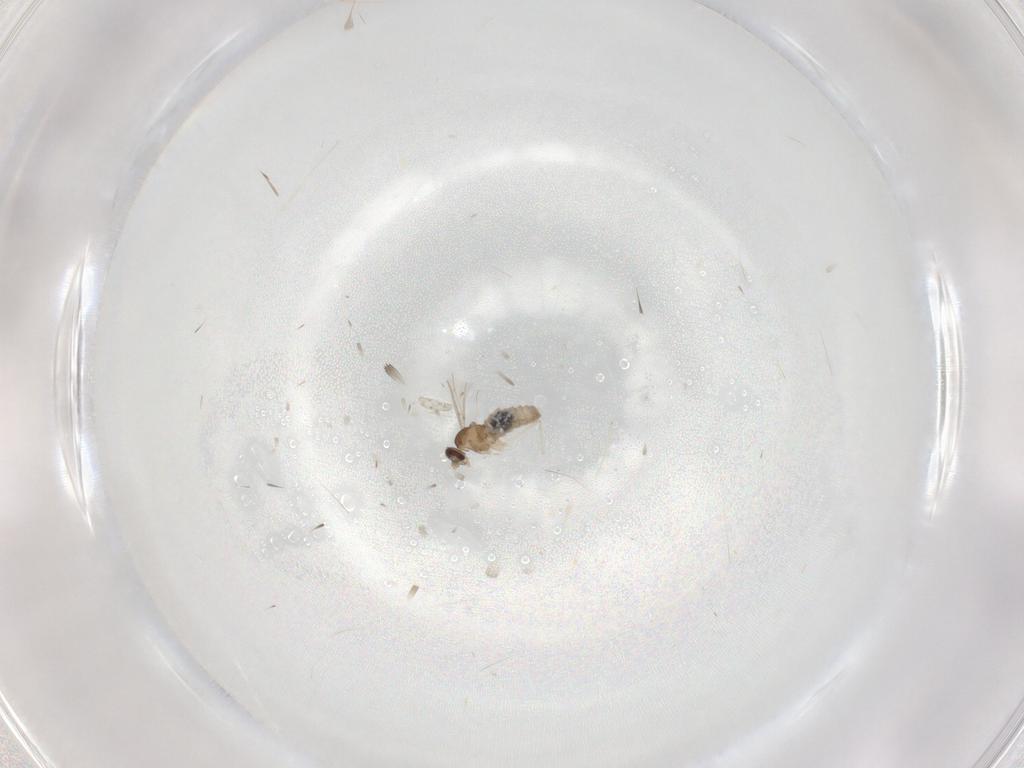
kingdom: Animalia
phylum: Arthropoda
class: Insecta
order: Diptera
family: Cecidomyiidae
